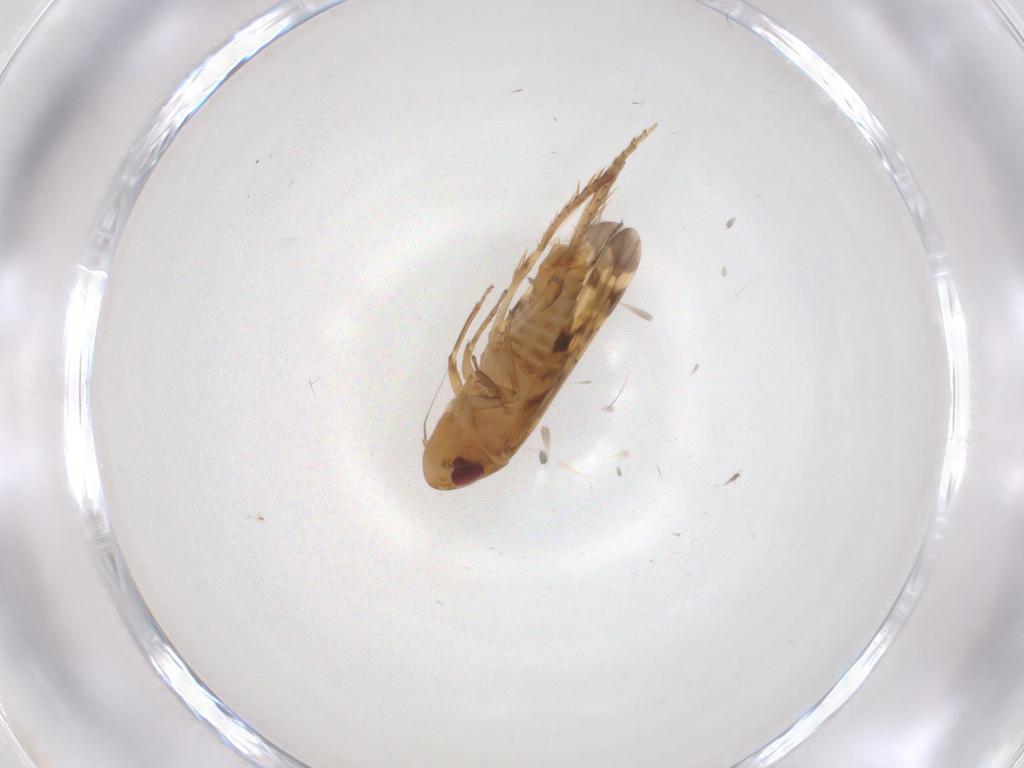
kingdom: Animalia
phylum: Arthropoda
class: Insecta
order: Hemiptera
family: Cicadellidae
